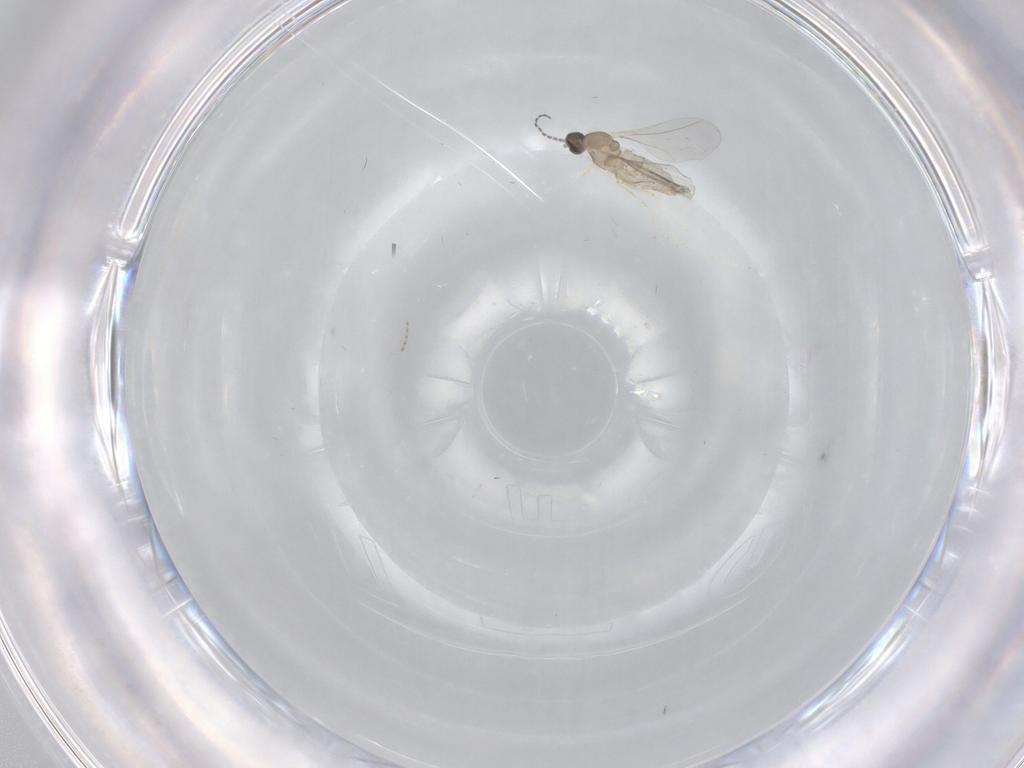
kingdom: Animalia
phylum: Arthropoda
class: Insecta
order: Diptera
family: Cecidomyiidae
